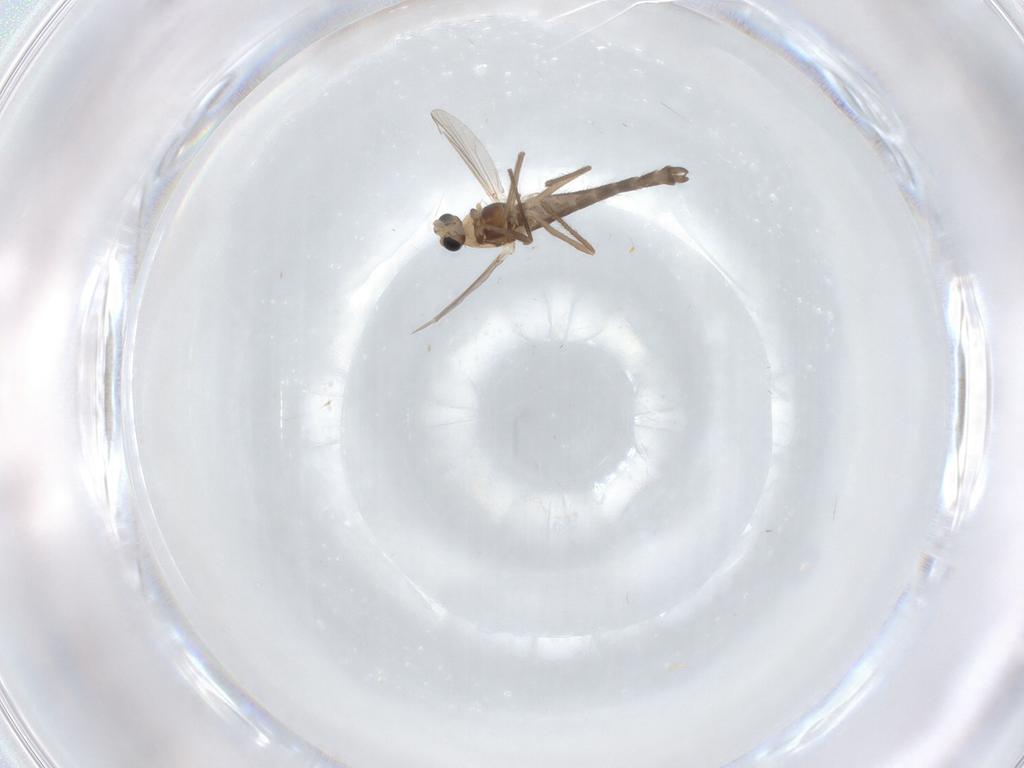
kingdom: Animalia
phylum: Arthropoda
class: Insecta
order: Diptera
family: Chironomidae
